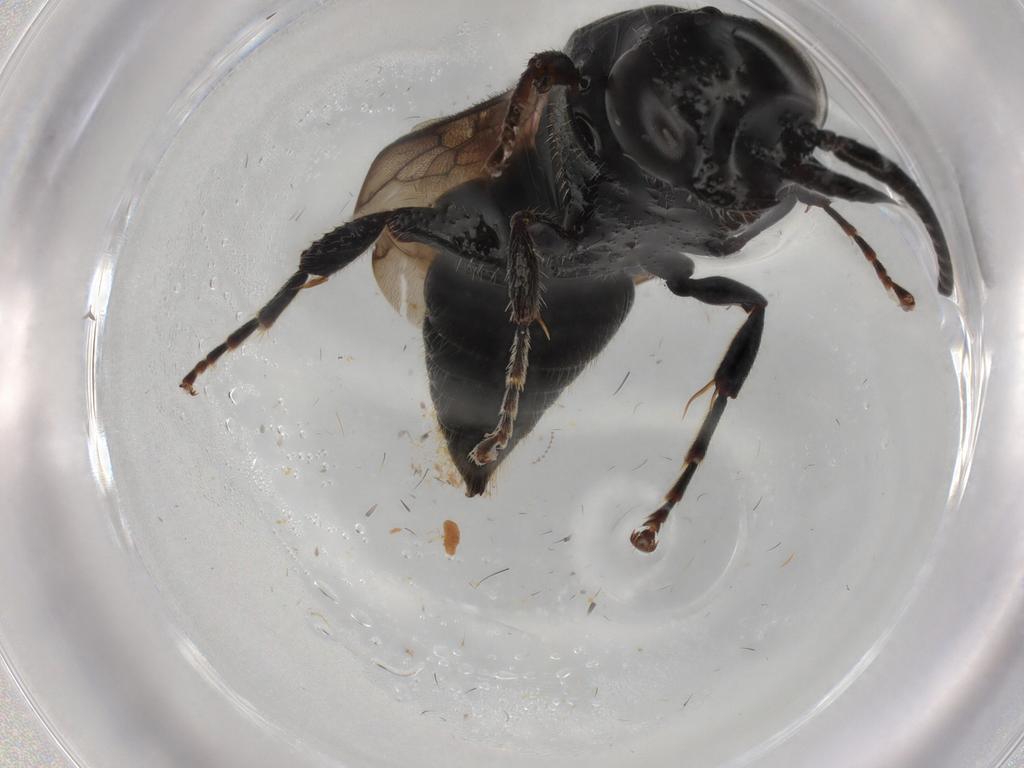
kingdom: Animalia
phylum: Arthropoda
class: Insecta
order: Hymenoptera
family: Tiphiidae
